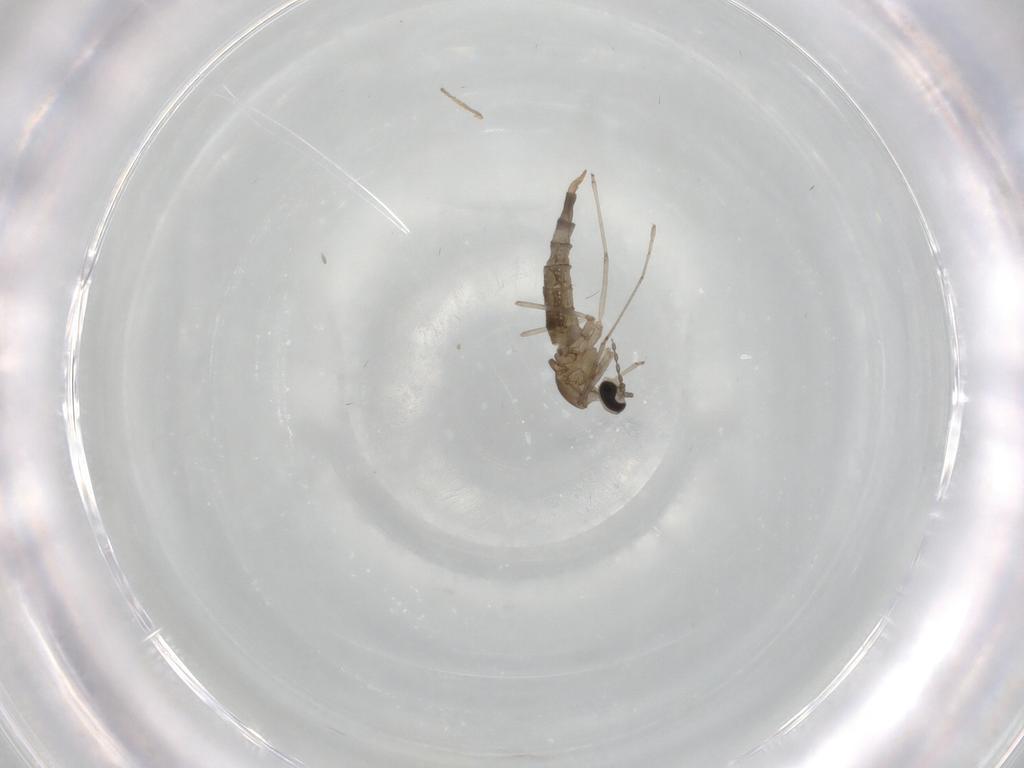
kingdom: Animalia
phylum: Arthropoda
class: Insecta
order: Diptera
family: Cecidomyiidae
